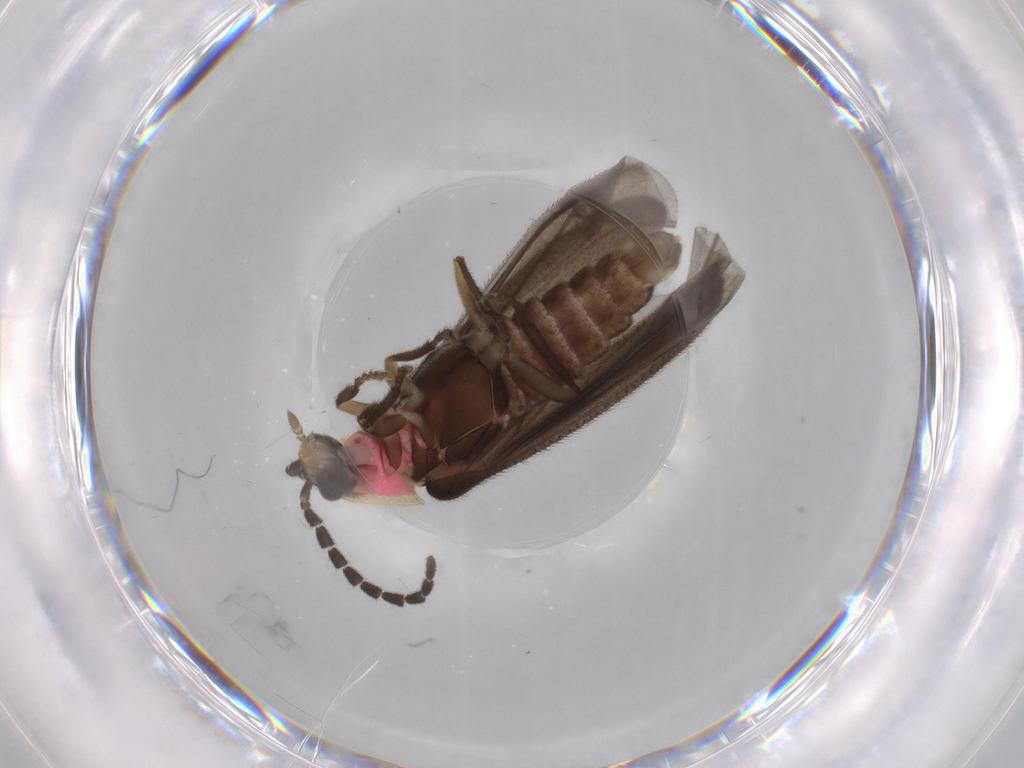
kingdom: Animalia
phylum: Arthropoda
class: Insecta
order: Coleoptera
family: Lampyridae
